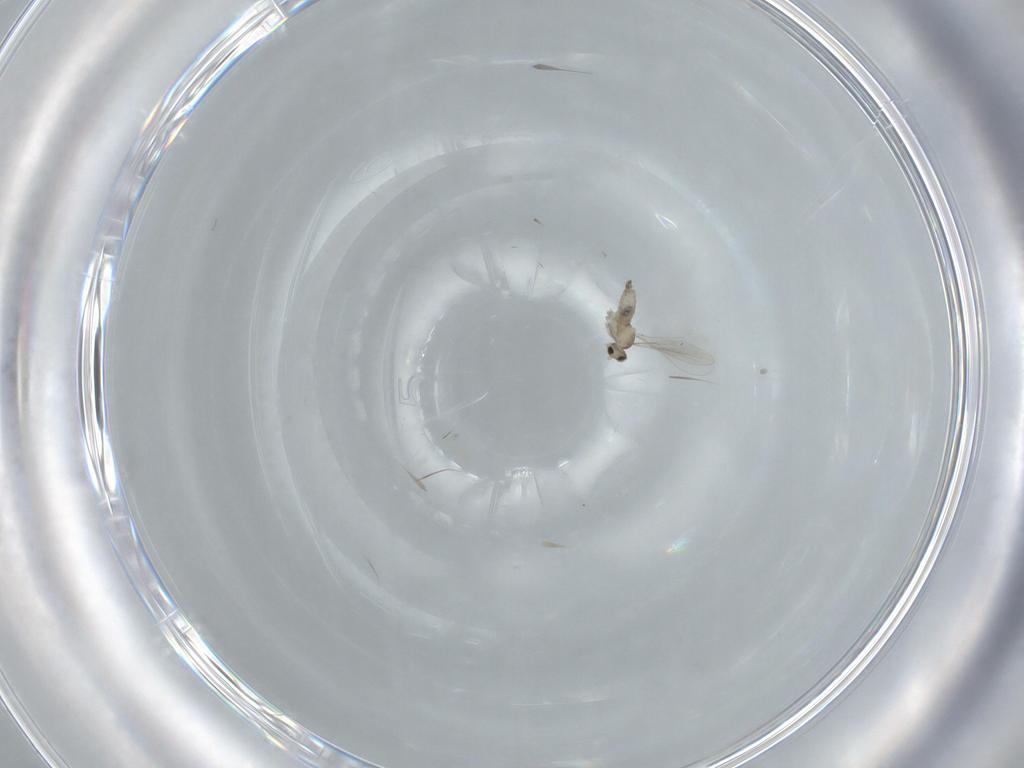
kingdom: Animalia
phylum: Arthropoda
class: Insecta
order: Diptera
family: Cecidomyiidae
